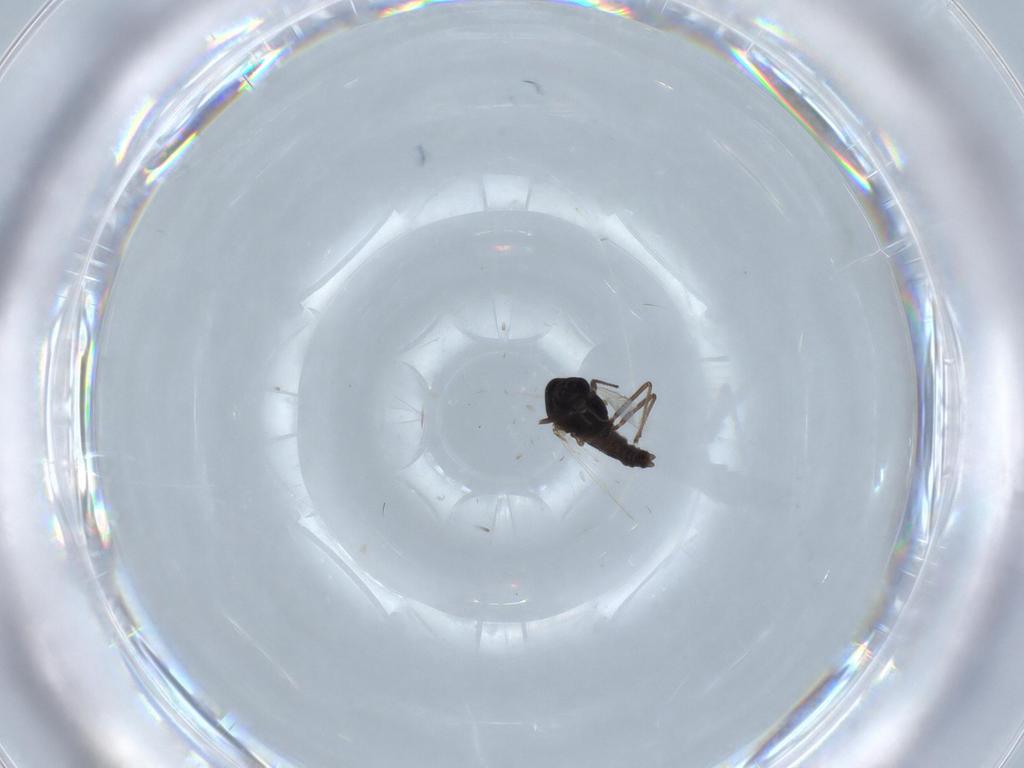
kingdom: Animalia
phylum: Arthropoda
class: Insecta
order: Diptera
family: Chironomidae
